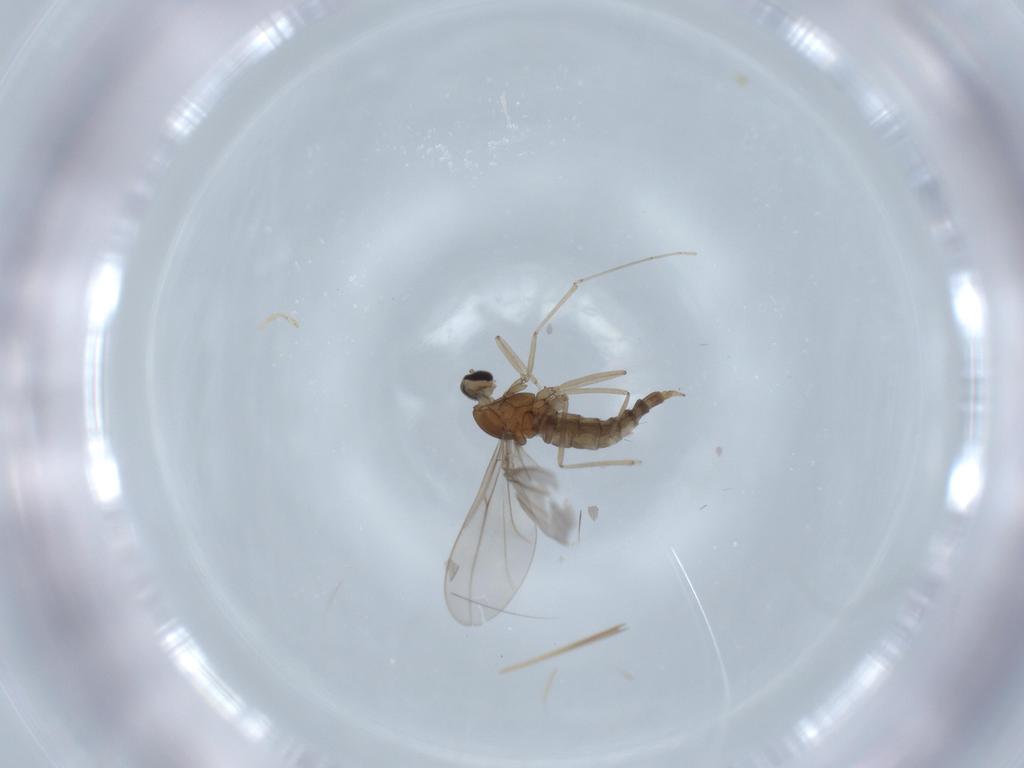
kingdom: Animalia
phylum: Arthropoda
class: Insecta
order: Diptera
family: Cecidomyiidae
